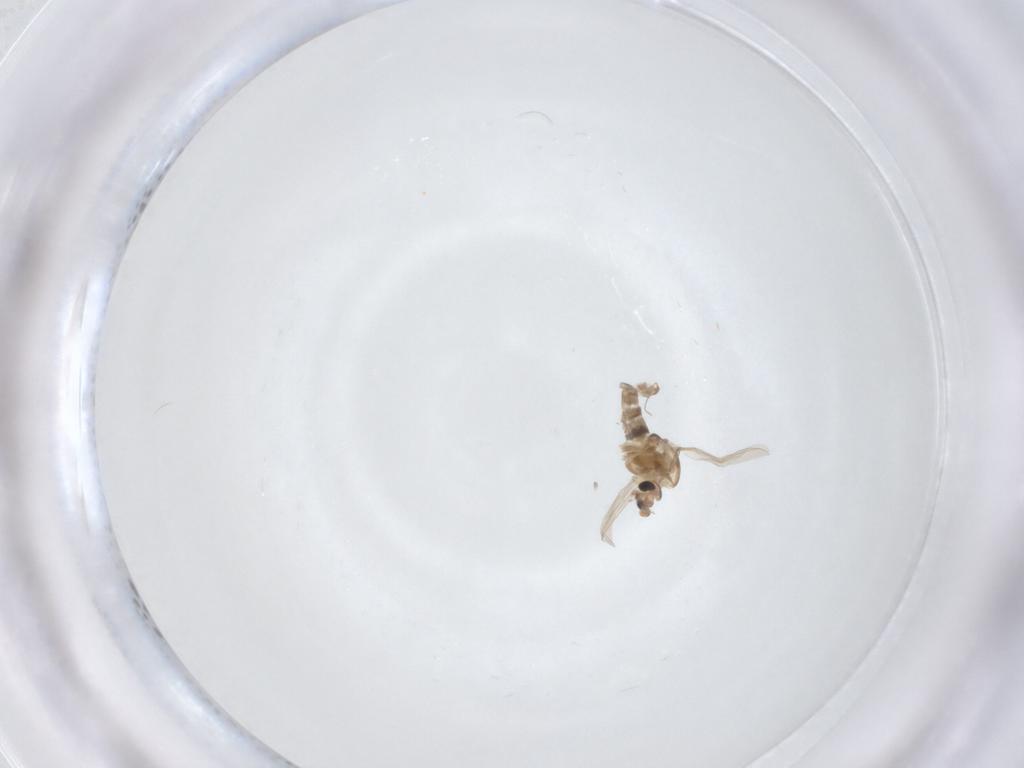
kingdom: Animalia
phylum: Arthropoda
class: Insecta
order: Diptera
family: Chironomidae
